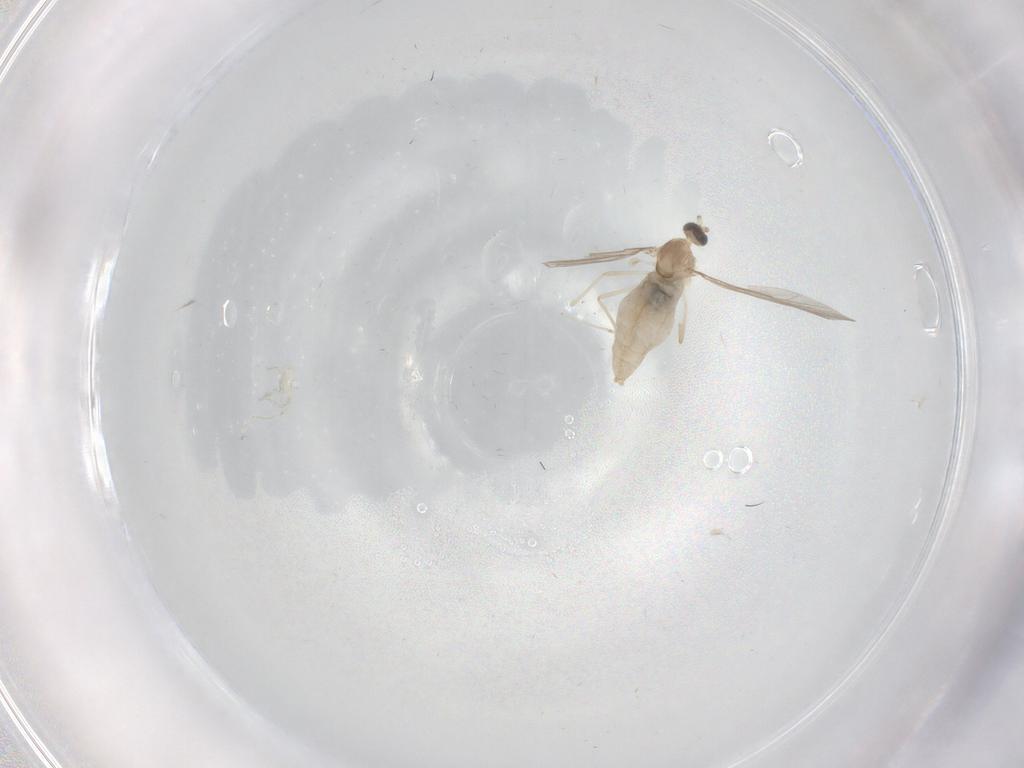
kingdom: Animalia
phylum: Arthropoda
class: Insecta
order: Diptera
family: Cecidomyiidae
